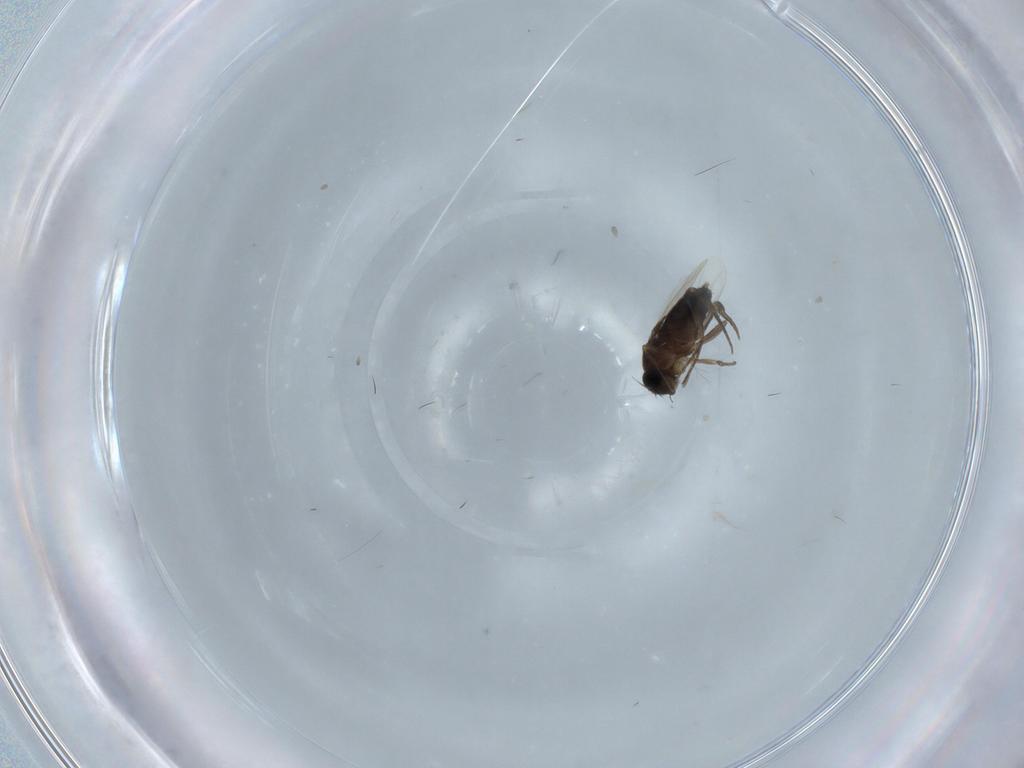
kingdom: Animalia
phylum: Arthropoda
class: Insecta
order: Diptera
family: Phoridae
